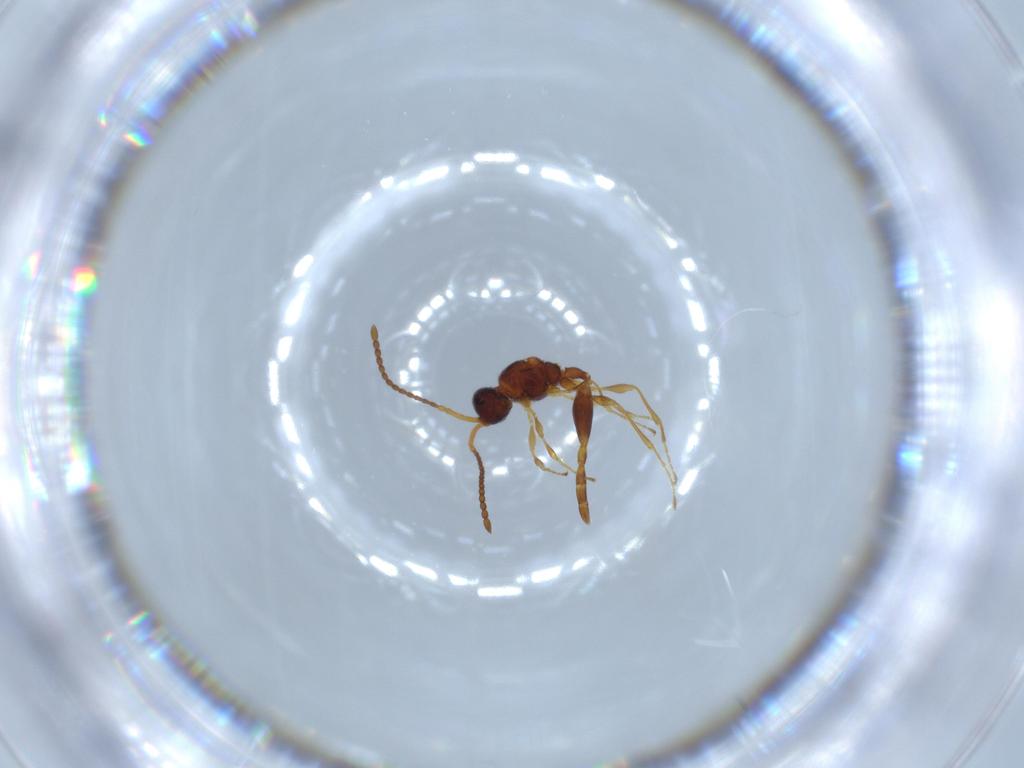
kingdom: Animalia
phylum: Arthropoda
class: Insecta
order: Hymenoptera
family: Diapriidae
